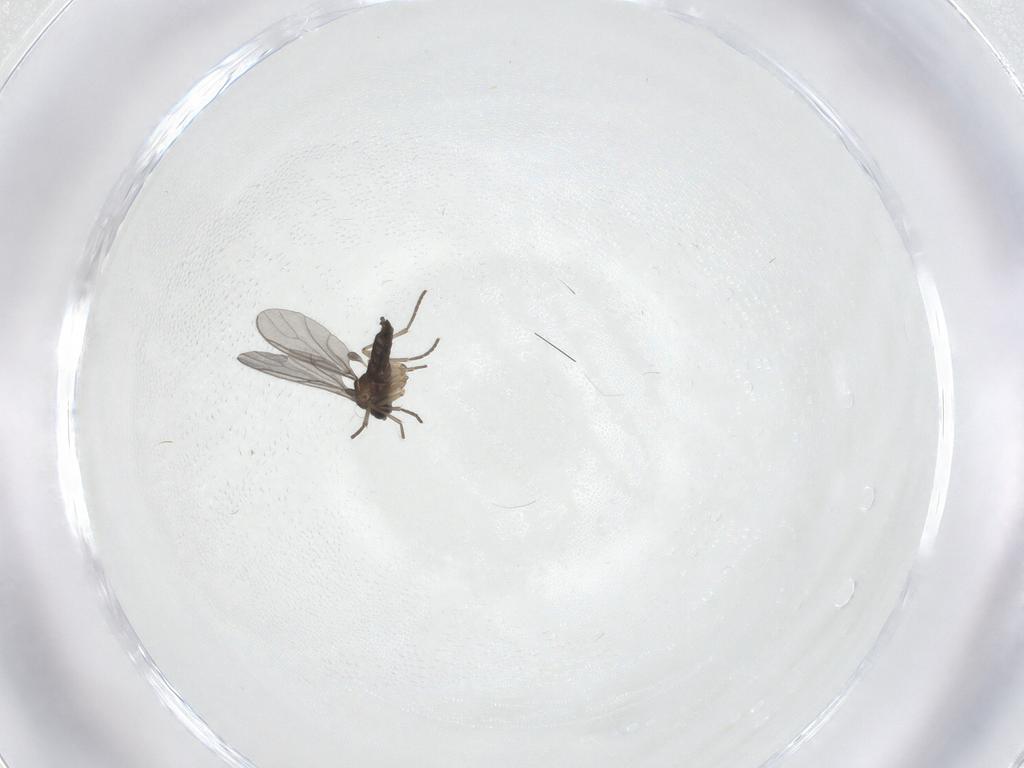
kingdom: Animalia
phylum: Arthropoda
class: Insecta
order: Diptera
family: Sciaridae
